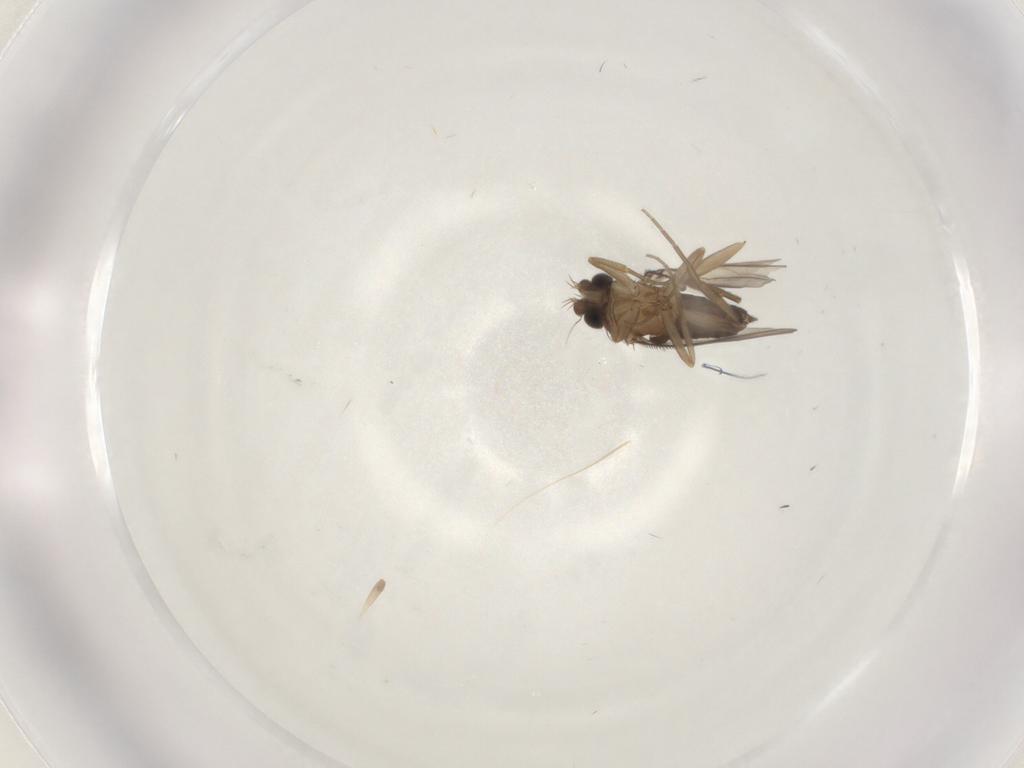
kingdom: Animalia
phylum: Arthropoda
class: Insecta
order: Diptera
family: Phoridae
